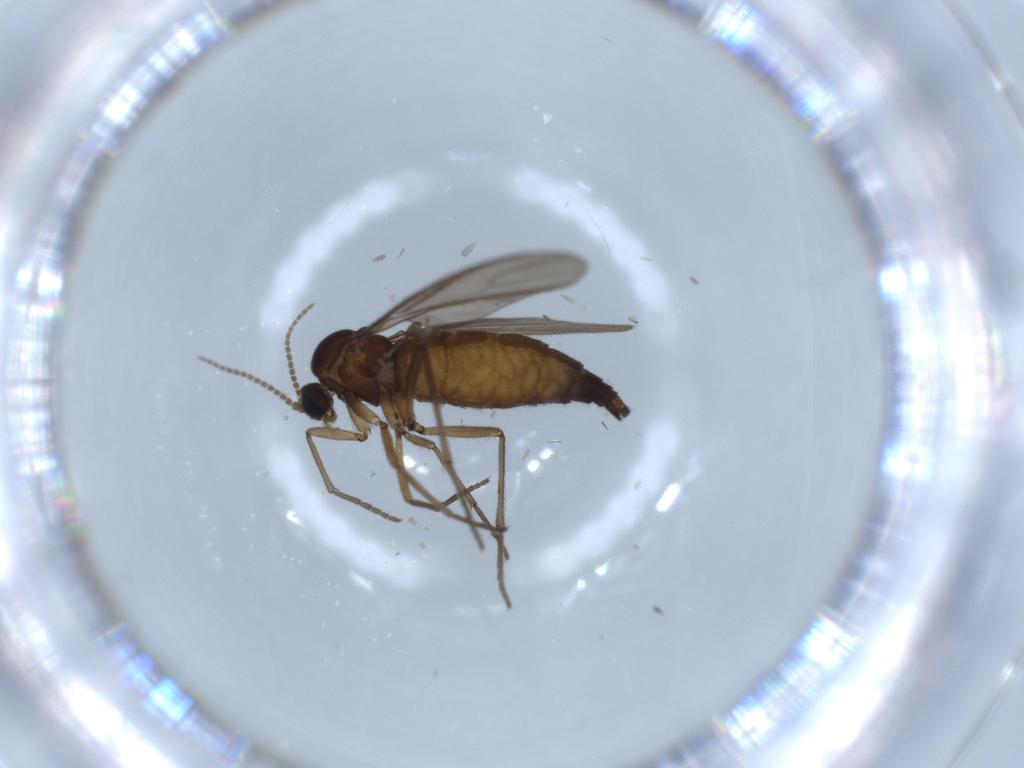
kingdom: Animalia
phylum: Arthropoda
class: Insecta
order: Diptera
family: Sciaridae
